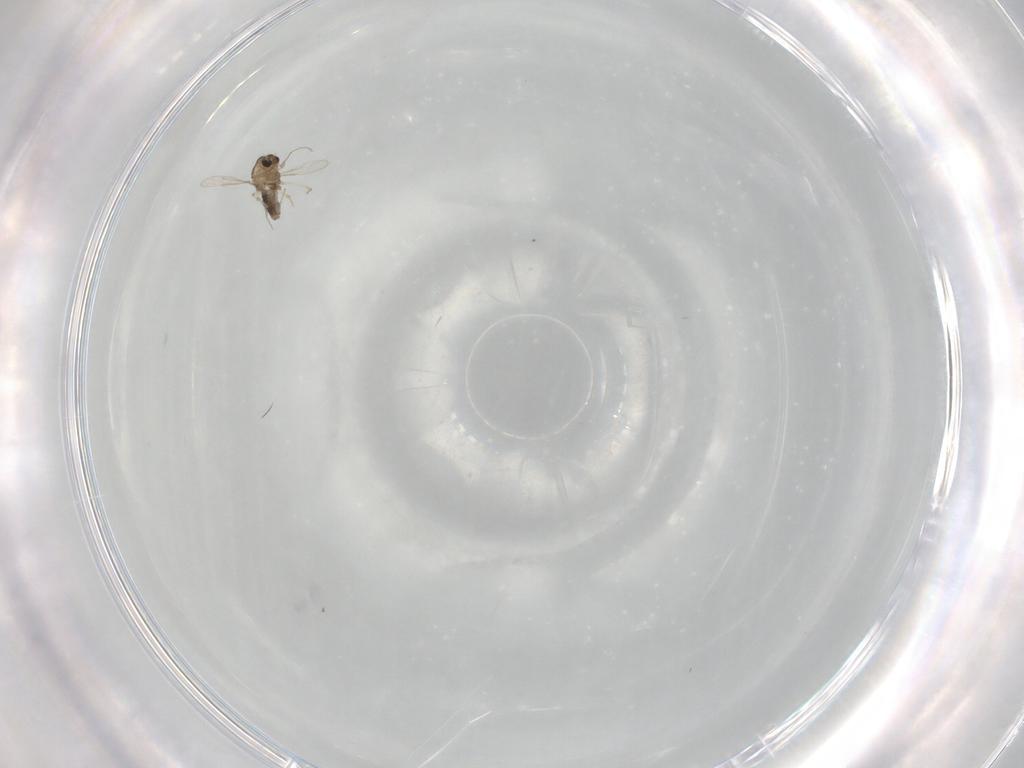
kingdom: Animalia
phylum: Arthropoda
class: Insecta
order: Diptera
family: Chironomidae
